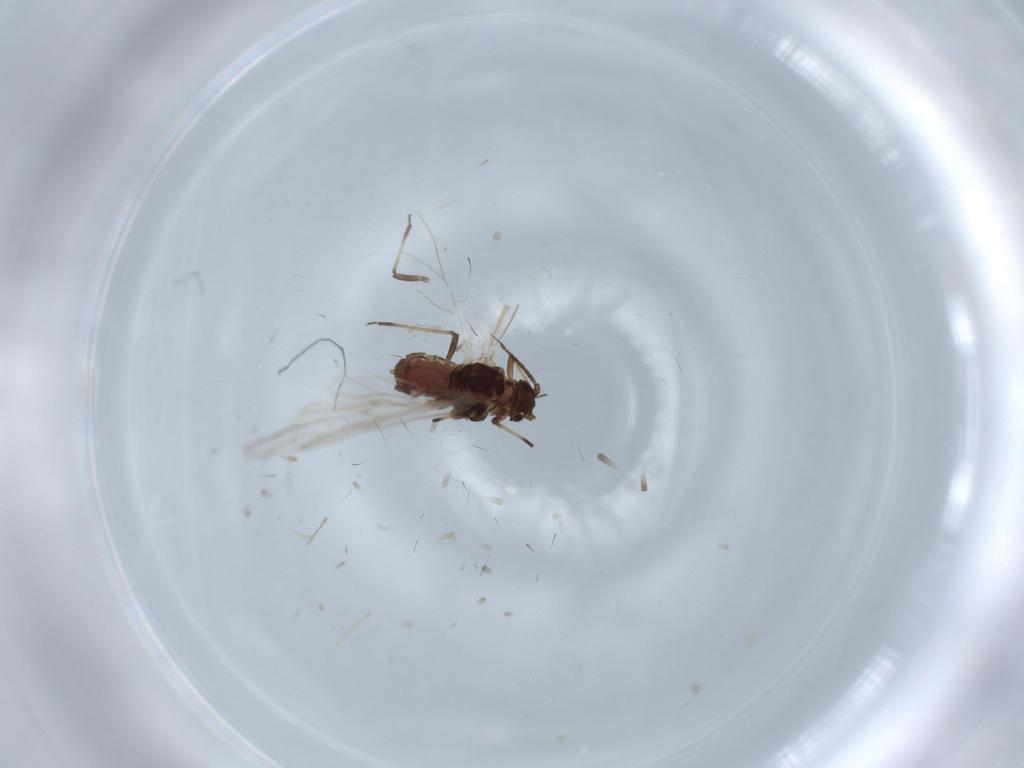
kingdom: Animalia
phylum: Arthropoda
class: Insecta
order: Hemiptera
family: Aphididae
